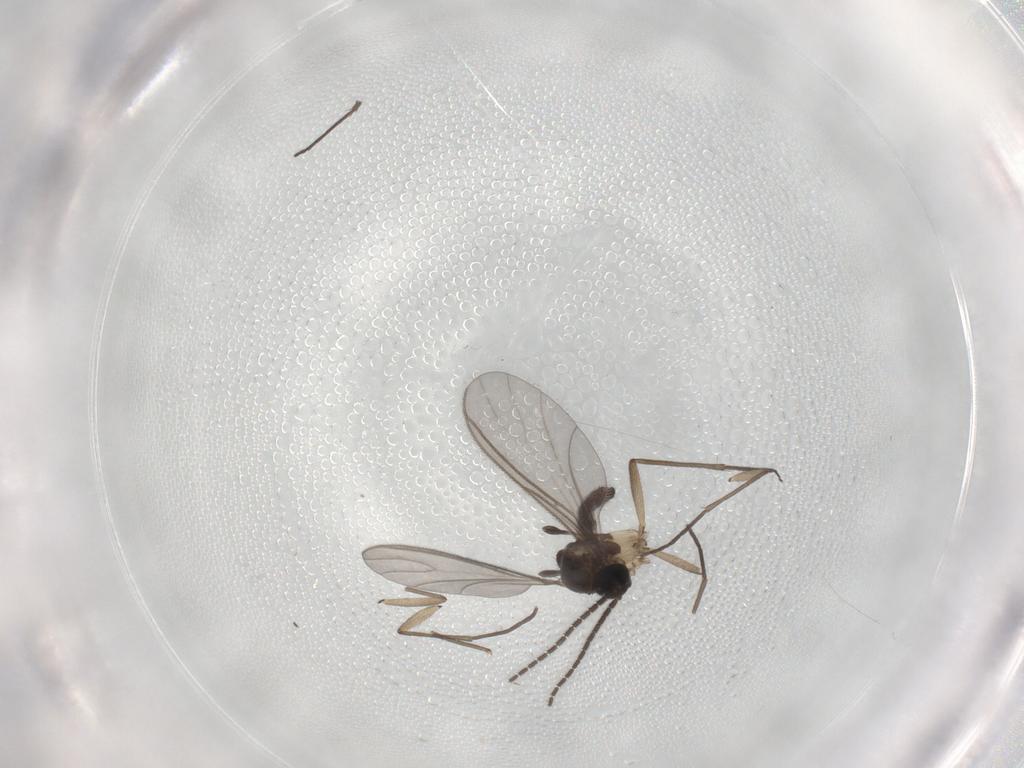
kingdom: Animalia
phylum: Arthropoda
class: Insecta
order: Diptera
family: Sciaridae
